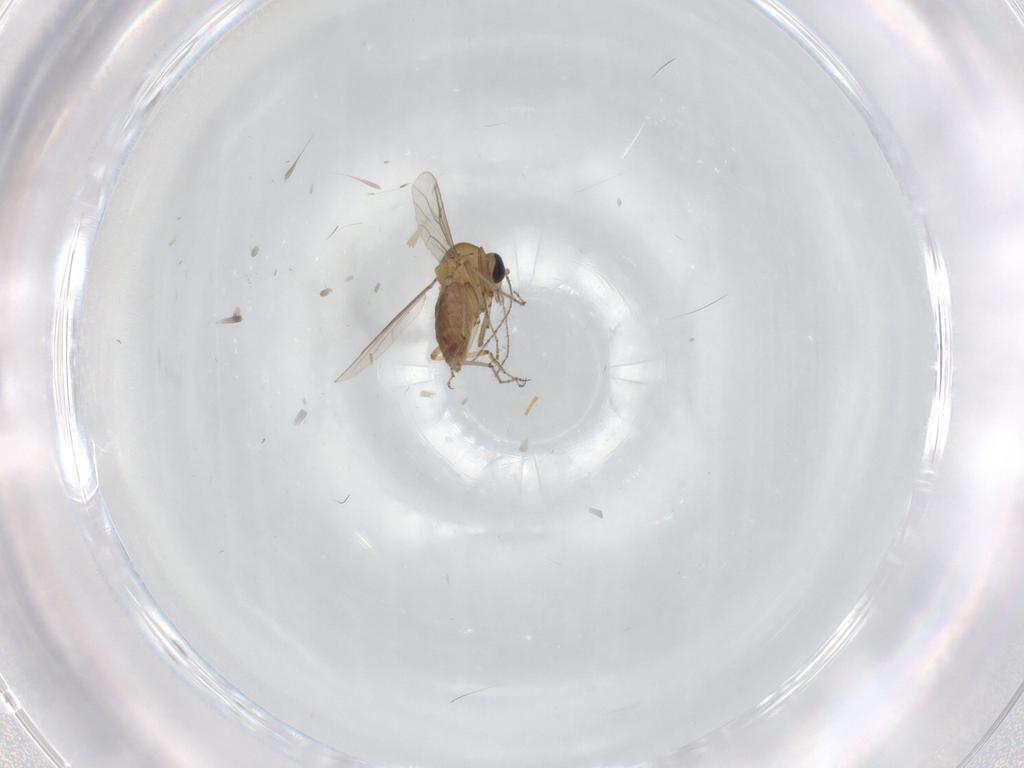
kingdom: Animalia
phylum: Arthropoda
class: Insecta
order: Diptera
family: Ceratopogonidae
